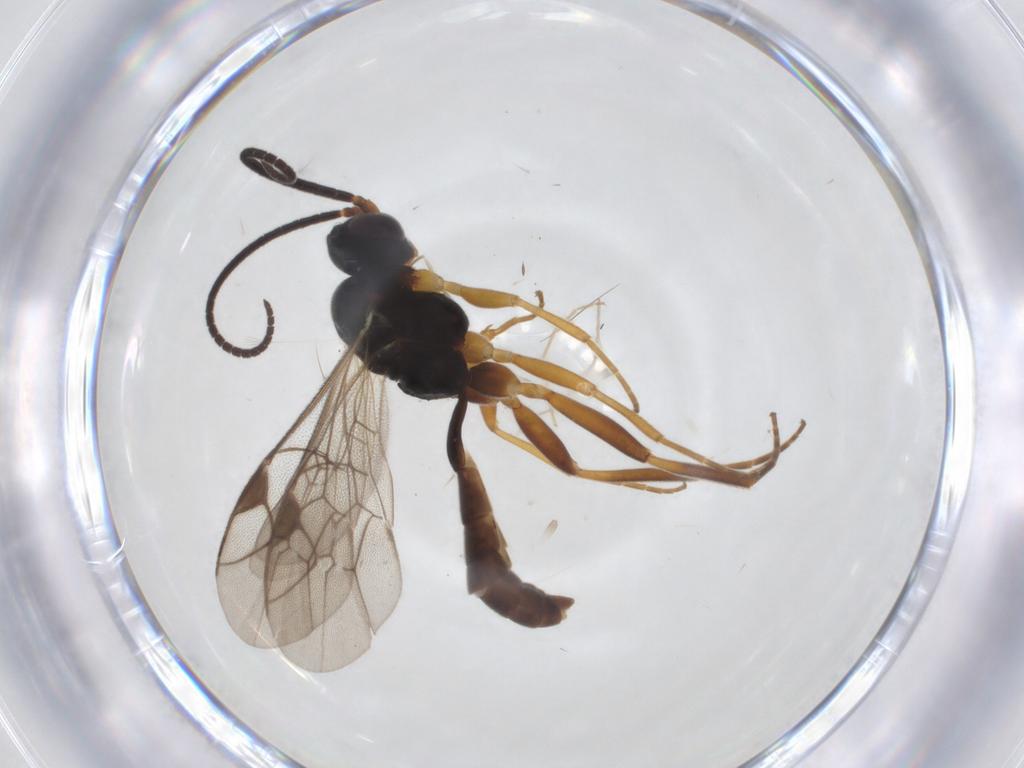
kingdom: Animalia
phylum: Arthropoda
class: Insecta
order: Hymenoptera
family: Ichneumonidae
